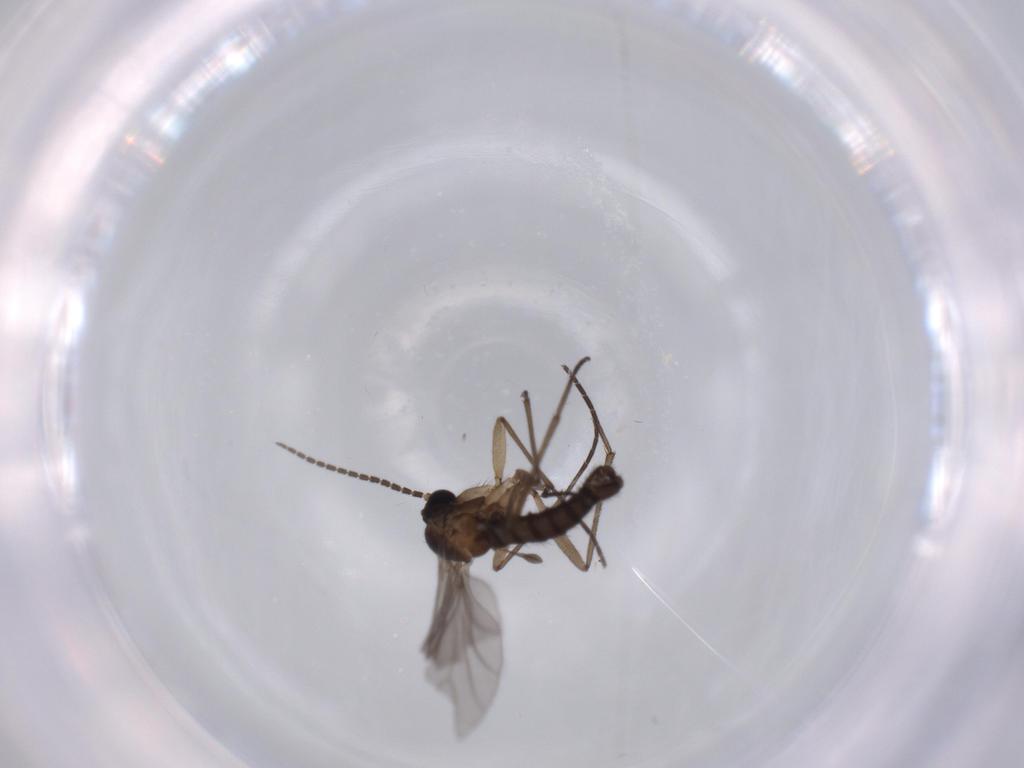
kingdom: Animalia
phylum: Arthropoda
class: Insecta
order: Diptera
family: Sciaridae
